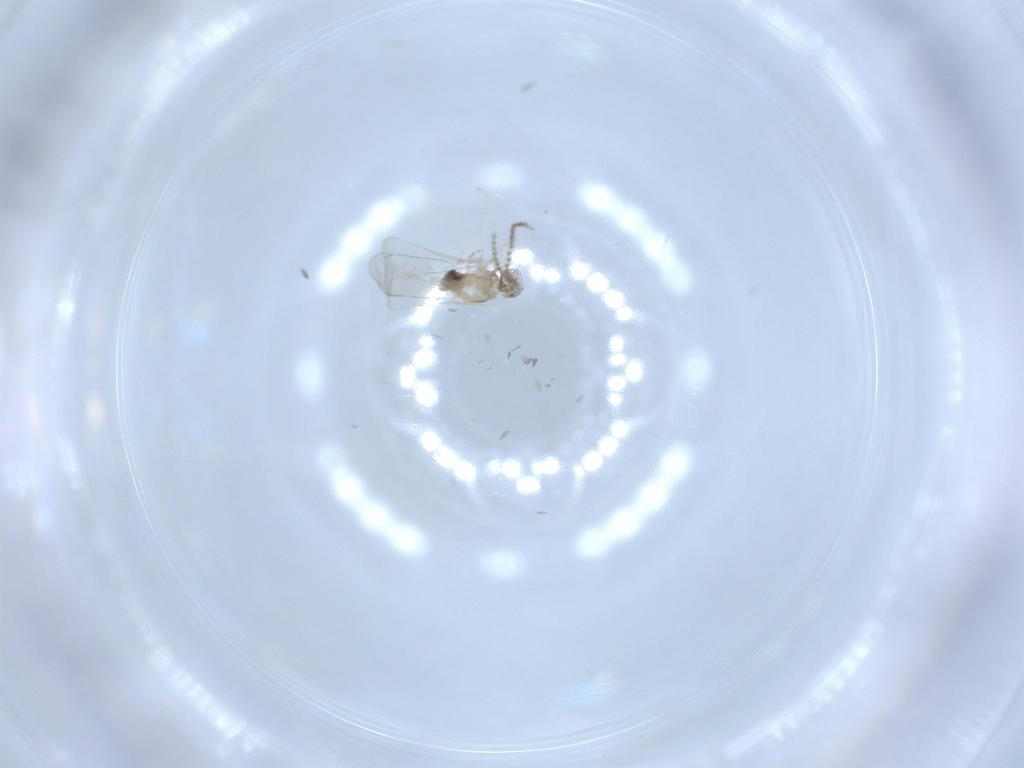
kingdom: Animalia
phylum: Arthropoda
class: Insecta
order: Diptera
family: Cecidomyiidae
